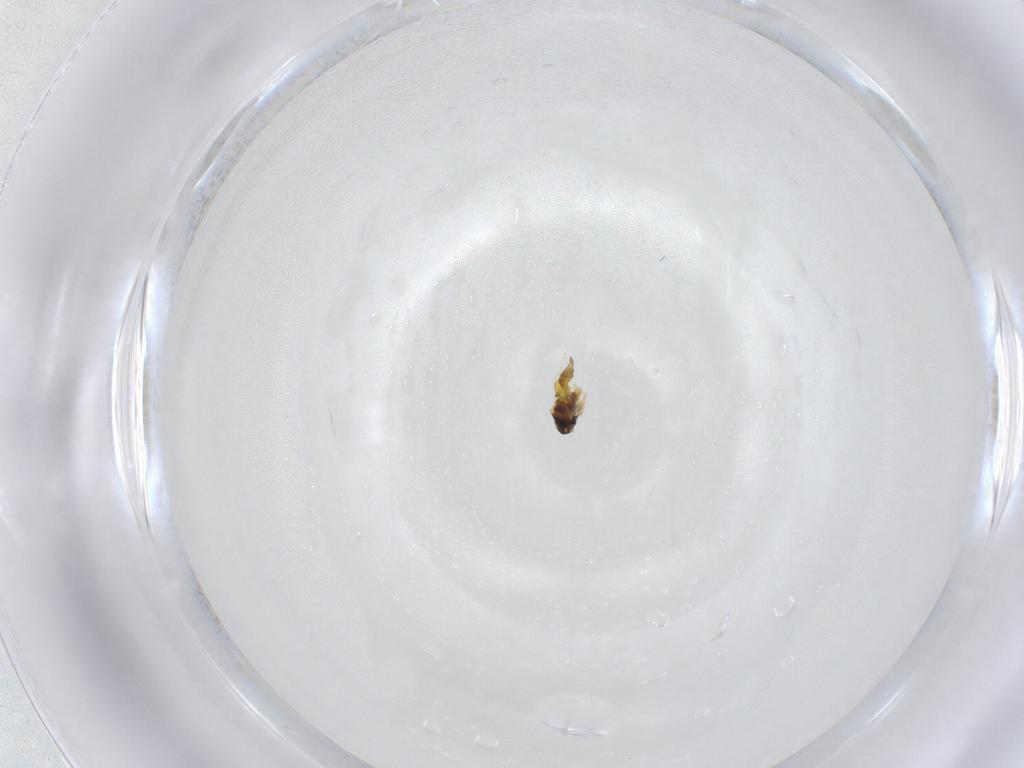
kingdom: Animalia
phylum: Arthropoda
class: Insecta
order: Hemiptera
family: Aleyrodidae
